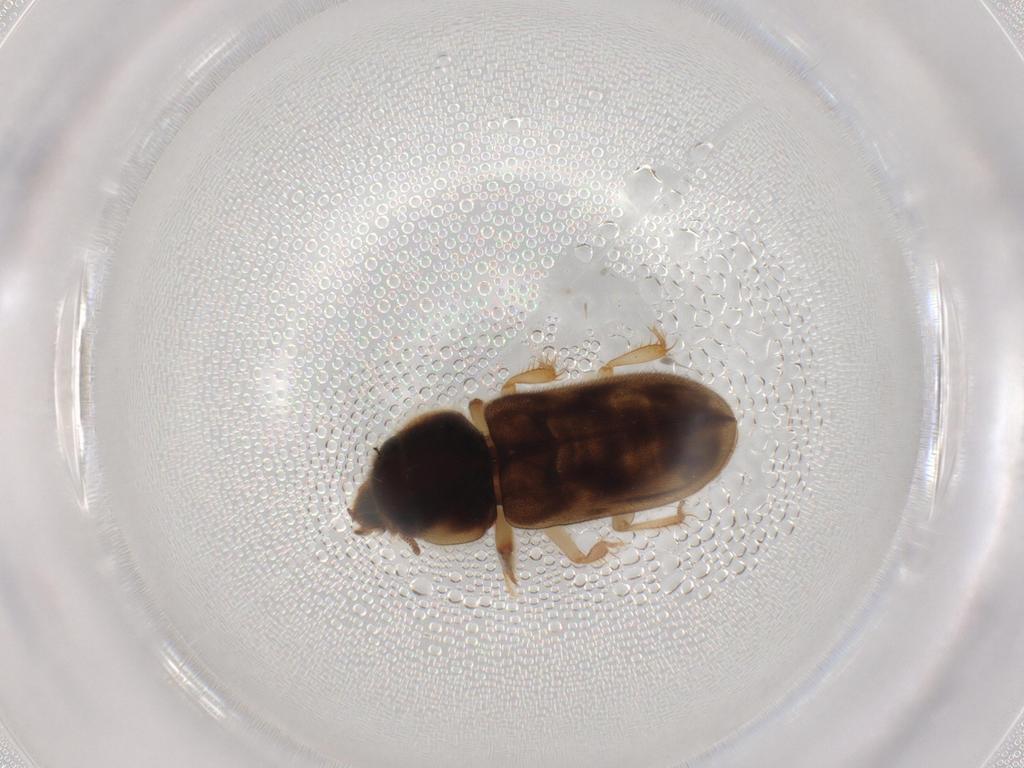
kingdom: Animalia
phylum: Arthropoda
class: Insecta
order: Coleoptera
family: Heteroceridae
